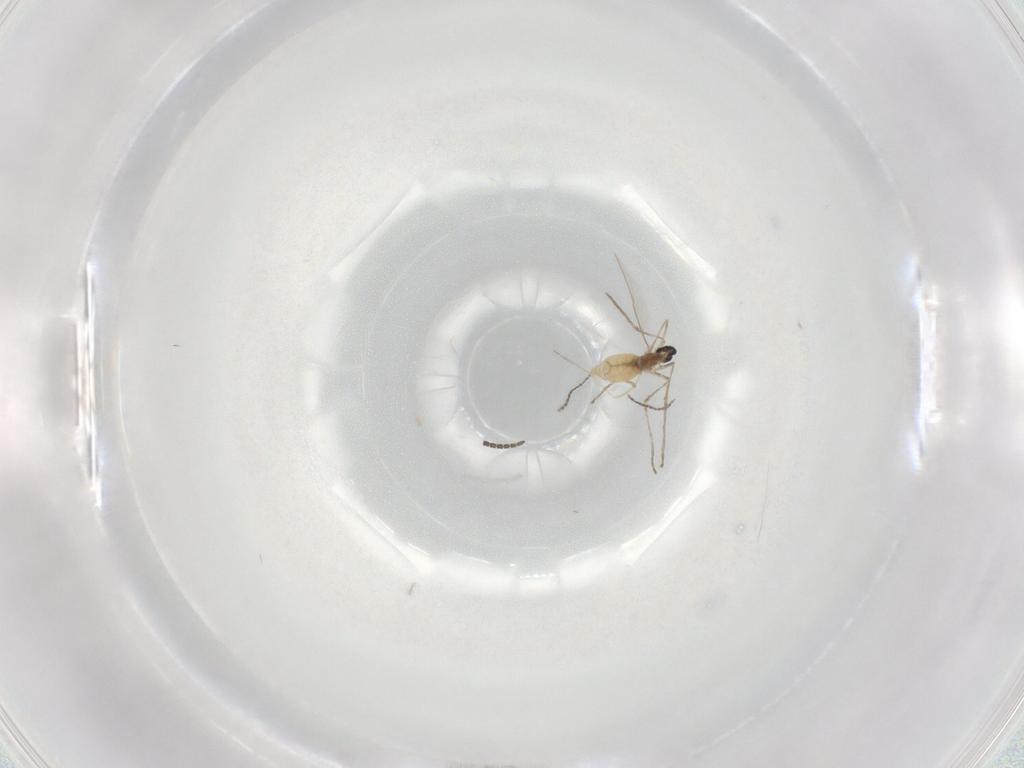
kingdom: Animalia
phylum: Arthropoda
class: Insecta
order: Diptera
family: Sciaridae
